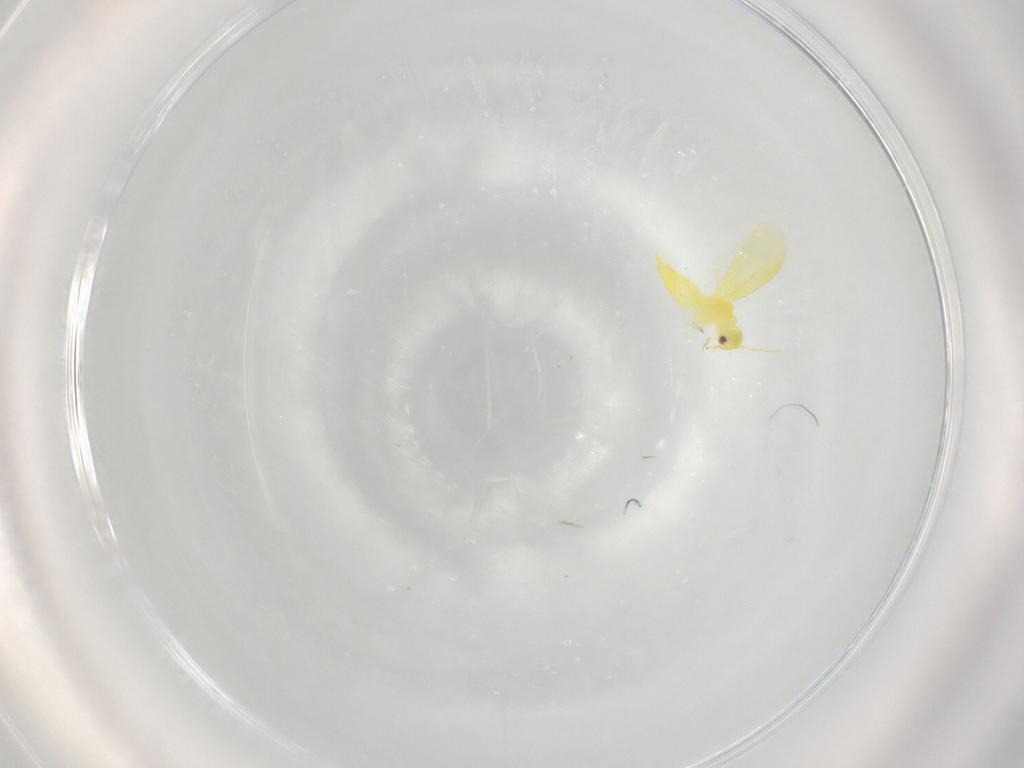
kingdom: Animalia
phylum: Arthropoda
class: Insecta
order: Hemiptera
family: Aleyrodidae
